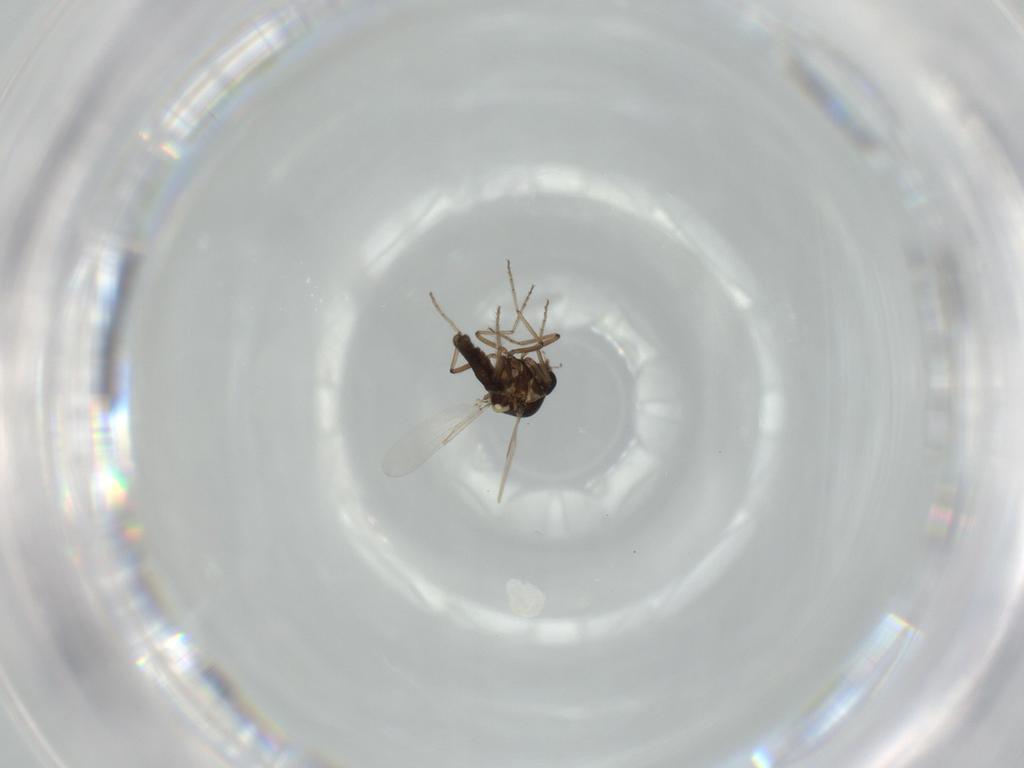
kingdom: Animalia
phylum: Arthropoda
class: Insecta
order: Diptera
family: Ceratopogonidae
